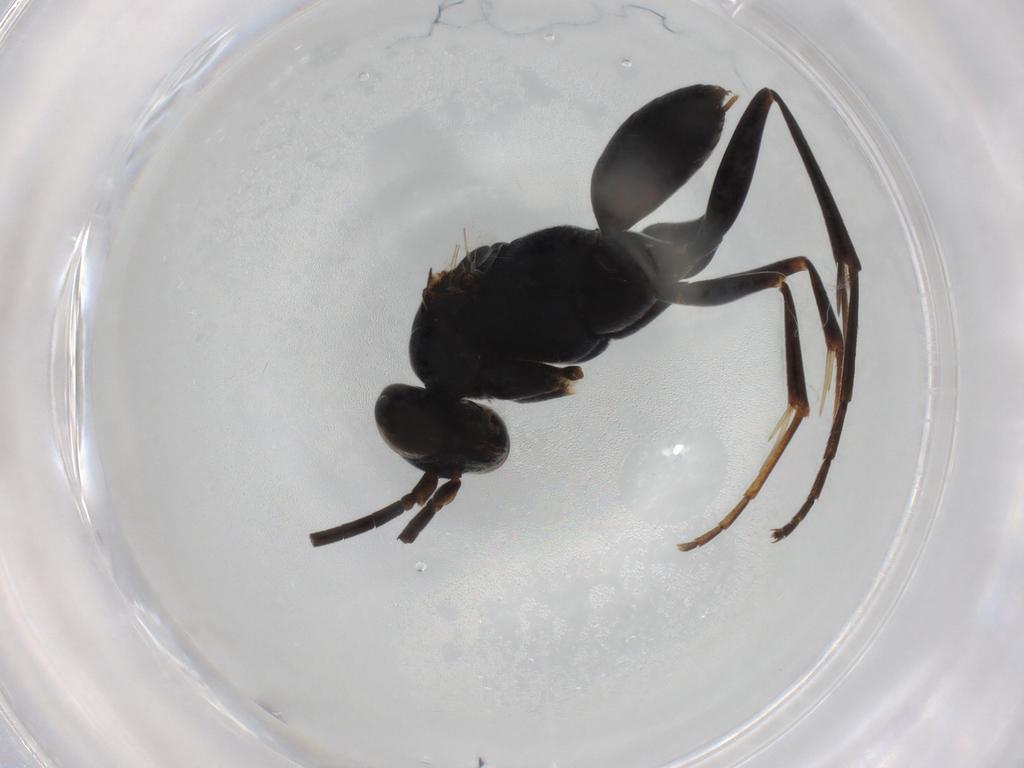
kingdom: Animalia
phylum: Arthropoda
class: Insecta
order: Hymenoptera
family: Pompilidae
